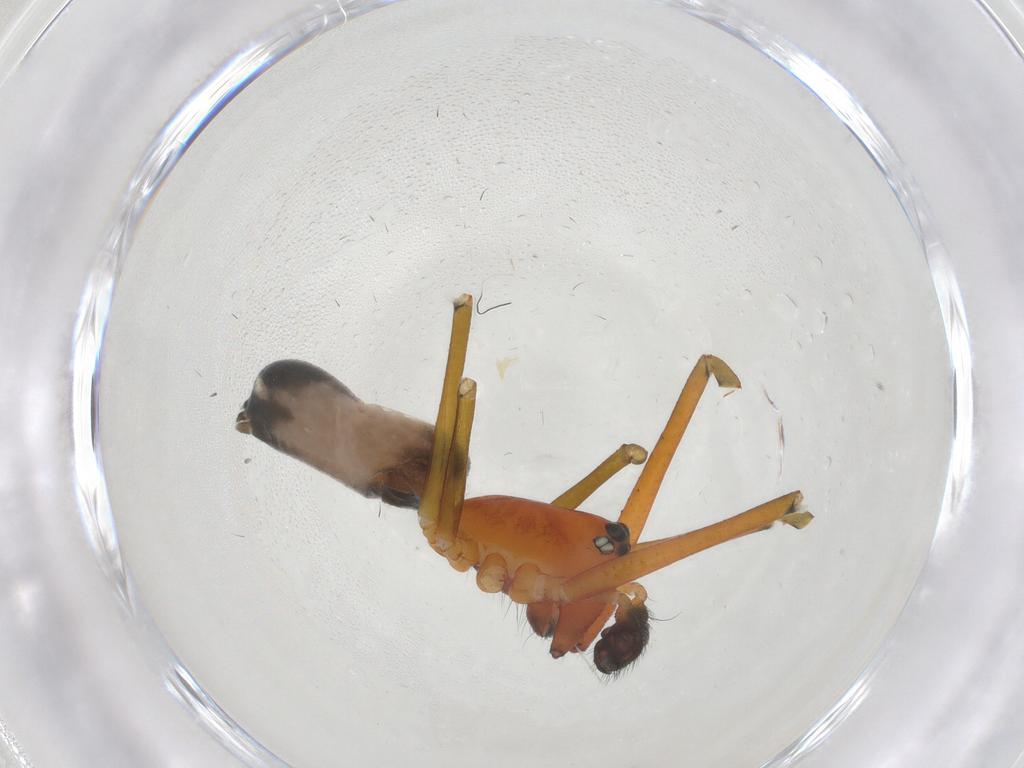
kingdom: Animalia
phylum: Arthropoda
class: Arachnida
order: Araneae
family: Linyphiidae
